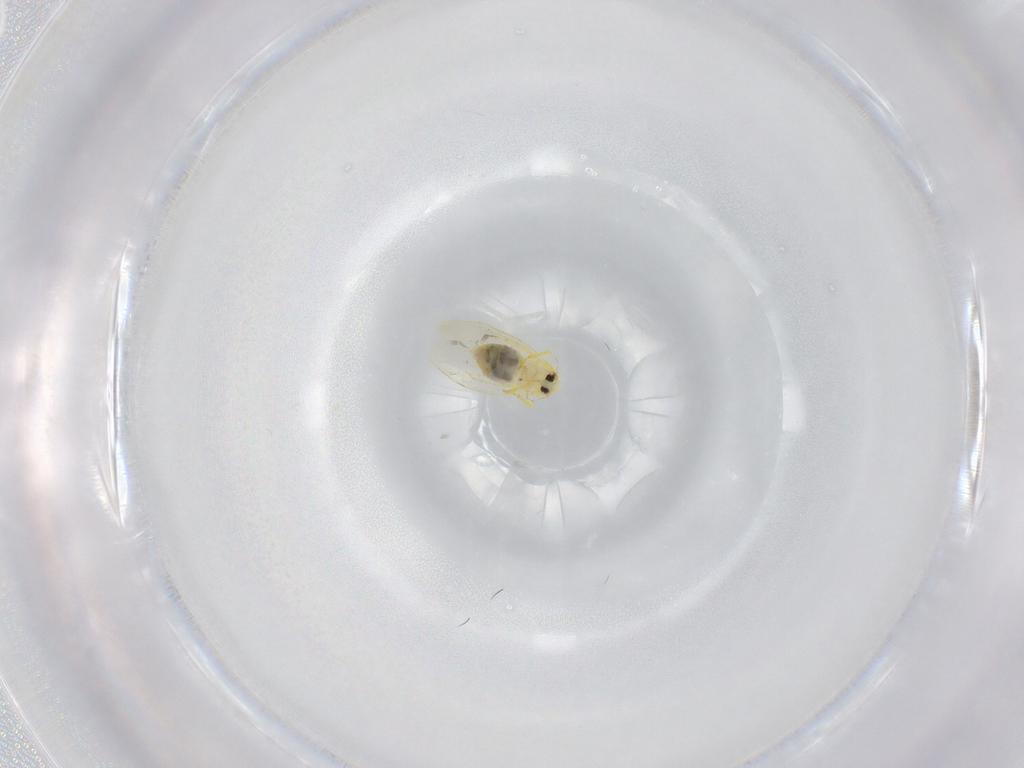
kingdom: Animalia
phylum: Arthropoda
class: Insecta
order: Hemiptera
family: Aleyrodidae
